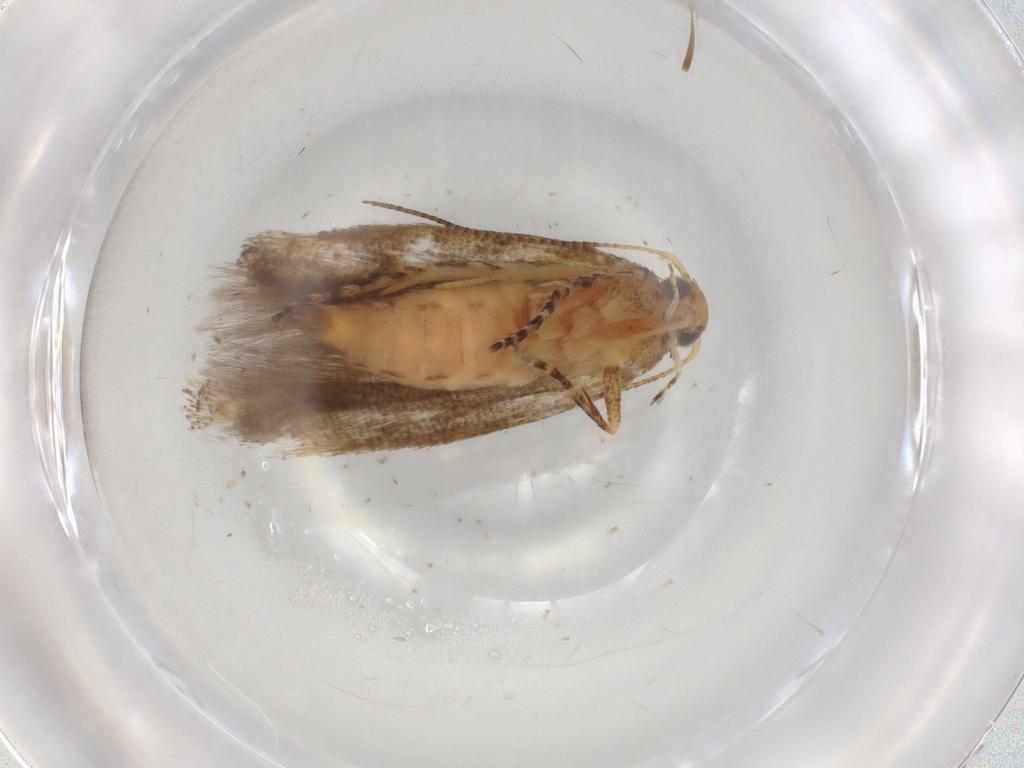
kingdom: Animalia
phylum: Arthropoda
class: Insecta
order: Lepidoptera
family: Gelechiidae
